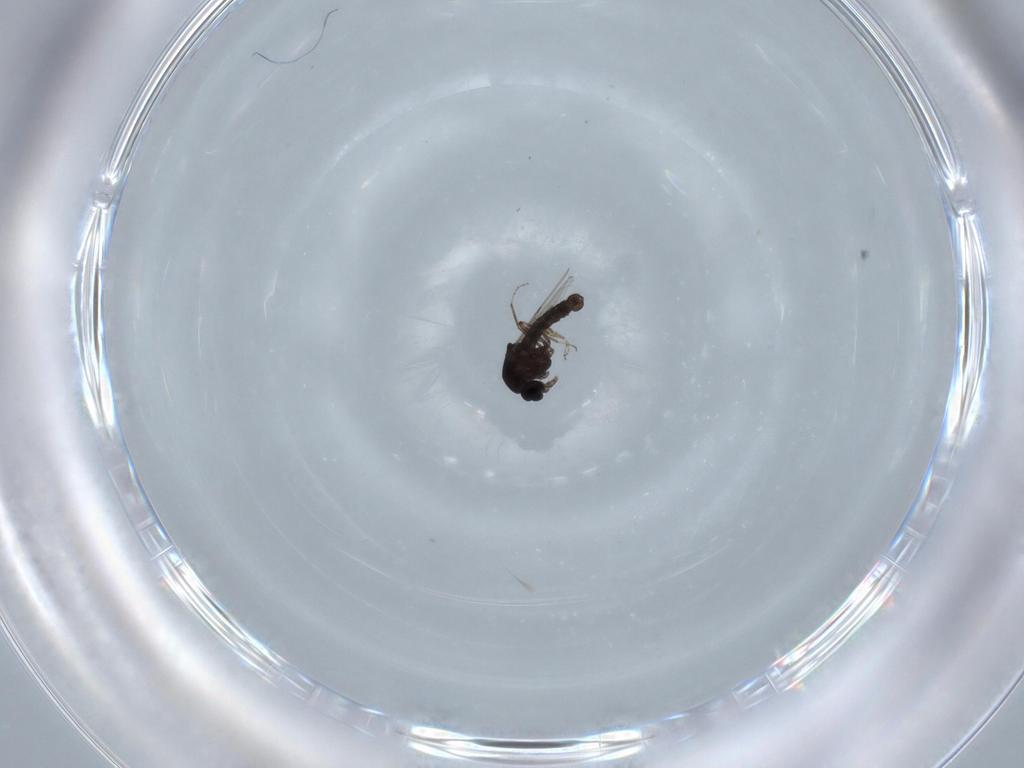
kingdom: Animalia
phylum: Arthropoda
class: Insecta
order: Diptera
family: Ceratopogonidae
